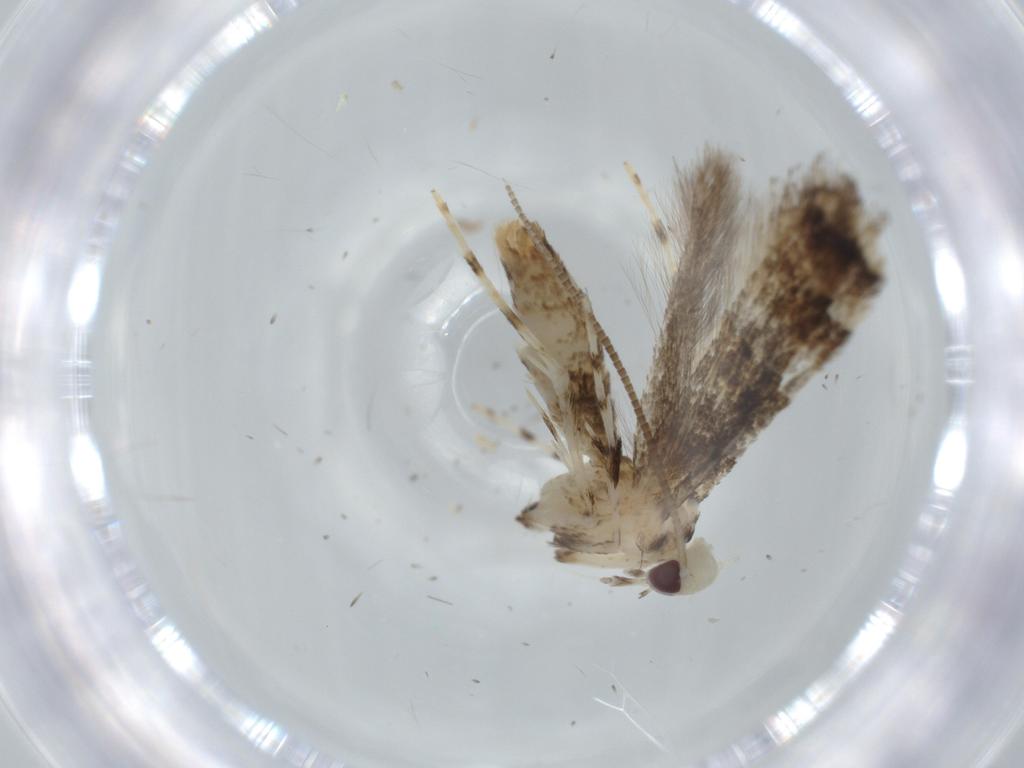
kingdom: Animalia
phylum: Arthropoda
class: Insecta
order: Lepidoptera
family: Gracillariidae
